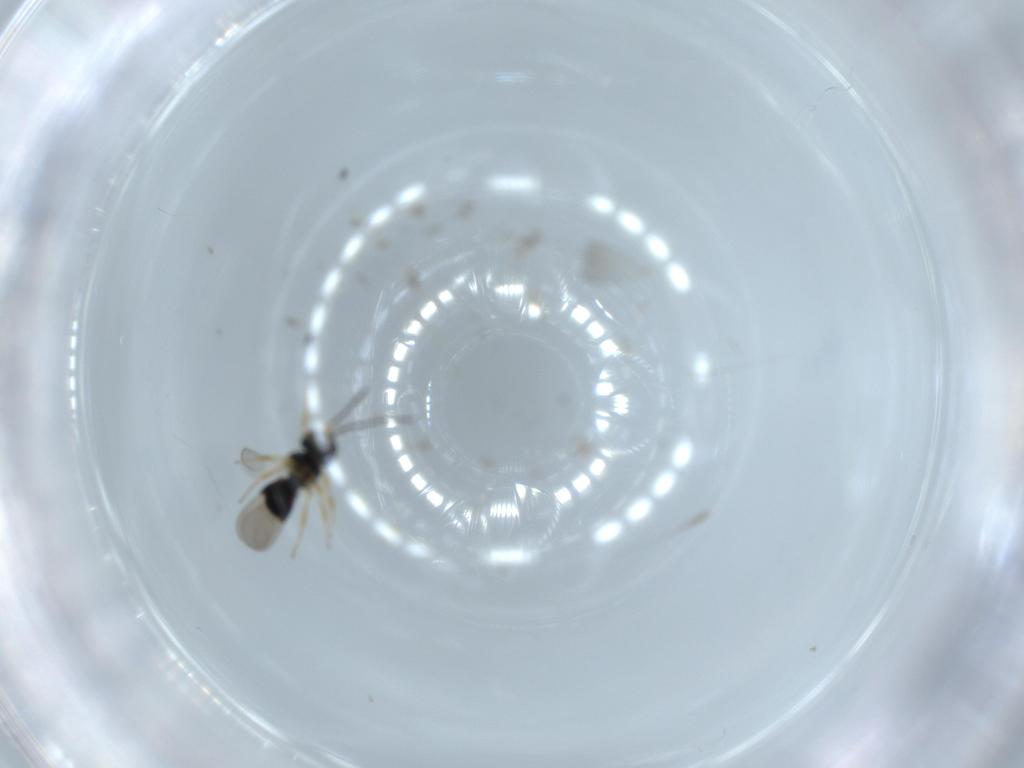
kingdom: Animalia
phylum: Arthropoda
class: Insecta
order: Hymenoptera
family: Scelionidae
